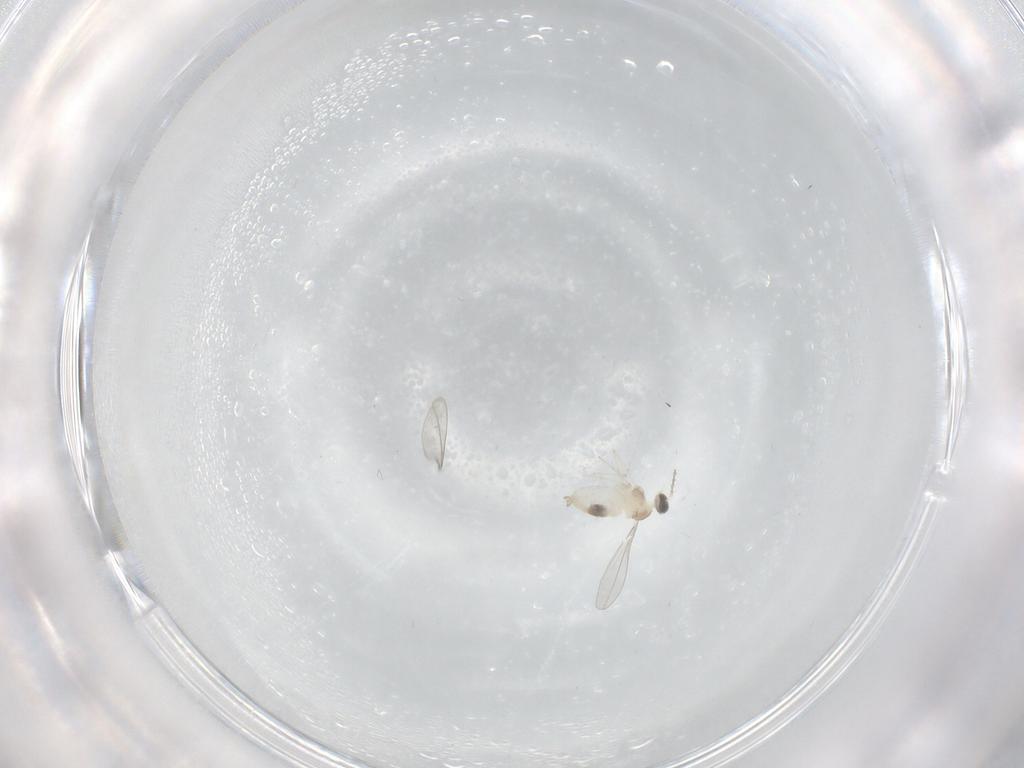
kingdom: Animalia
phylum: Arthropoda
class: Insecta
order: Diptera
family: Cecidomyiidae
